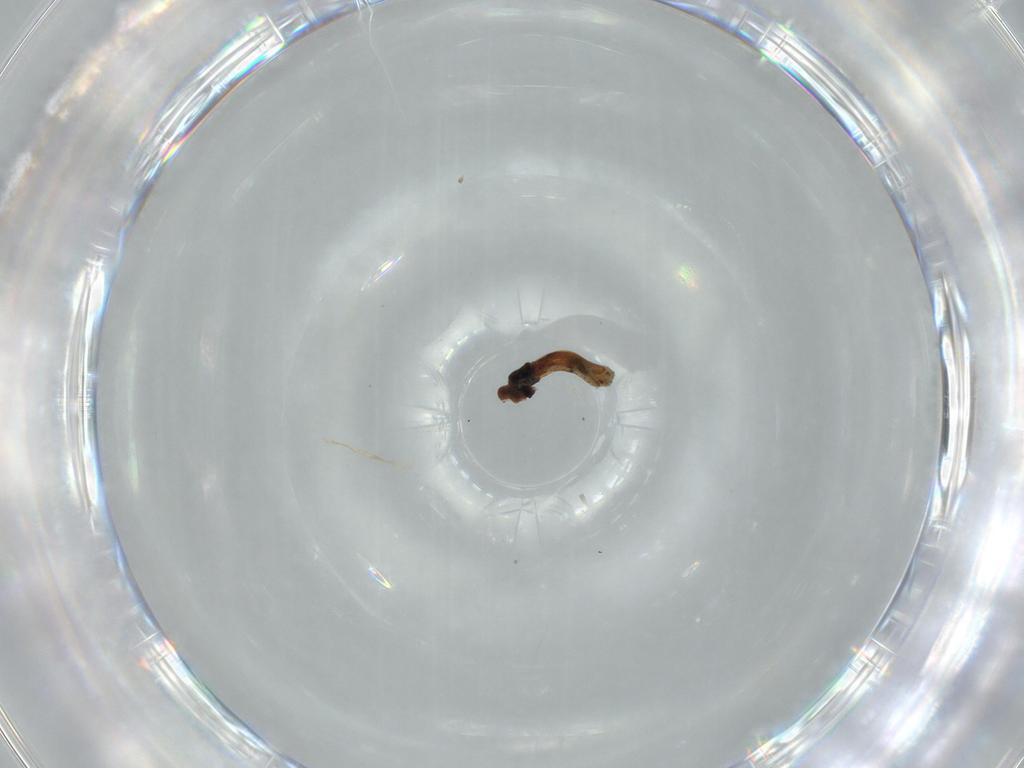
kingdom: Animalia
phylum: Arthropoda
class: Insecta
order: Coleoptera
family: Chrysomelidae
